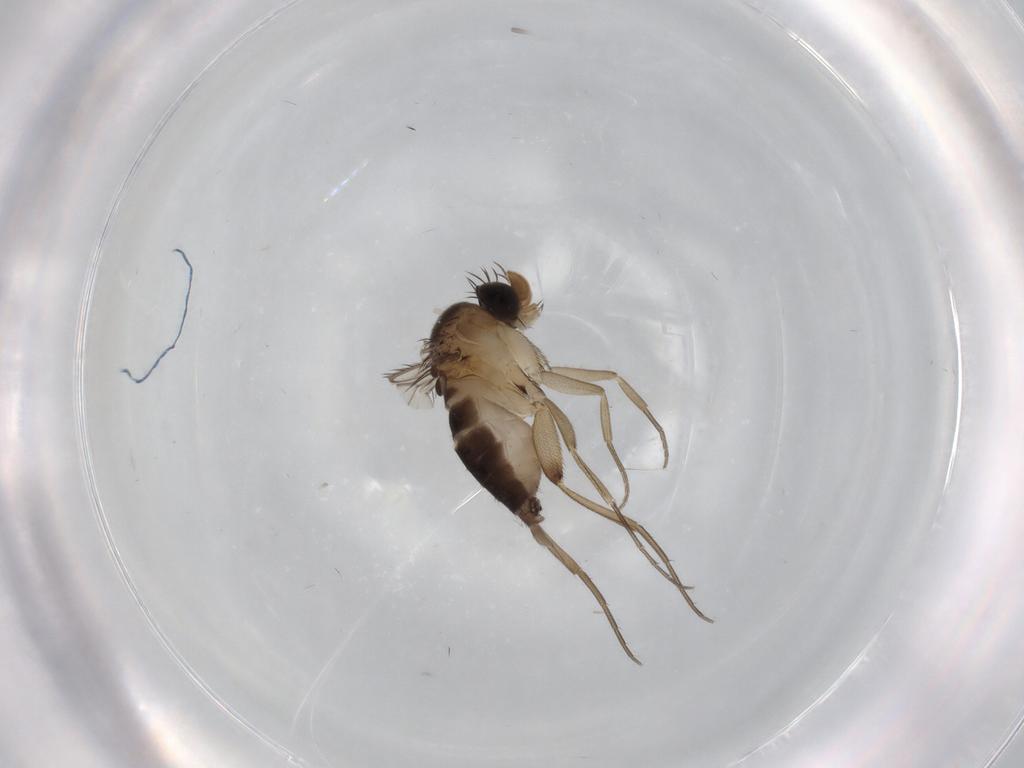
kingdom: Animalia
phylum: Arthropoda
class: Insecta
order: Diptera
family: Phoridae
